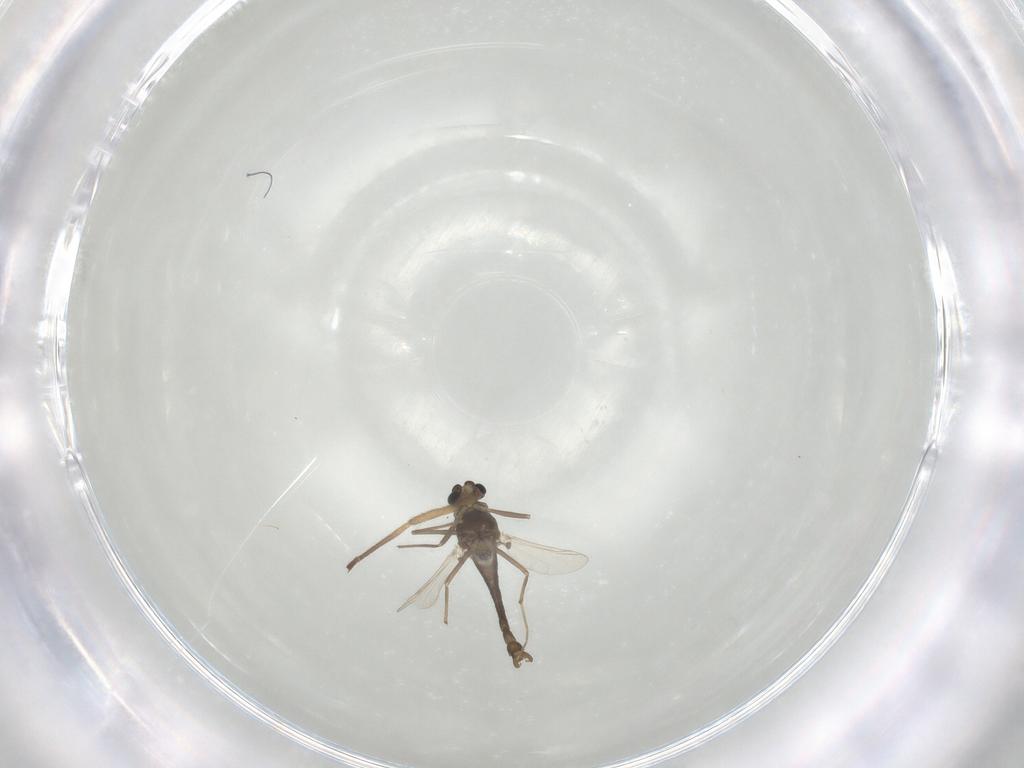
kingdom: Animalia
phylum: Arthropoda
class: Insecta
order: Diptera
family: Chironomidae
